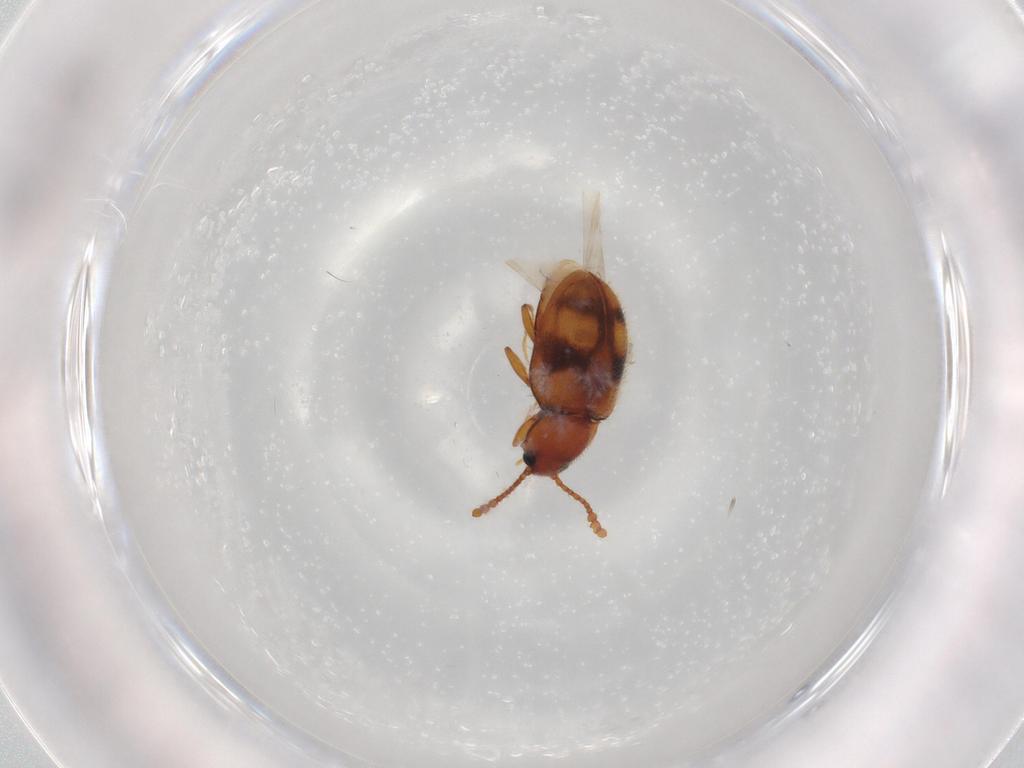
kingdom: Animalia
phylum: Arthropoda
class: Insecta
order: Coleoptera
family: Erotylidae
